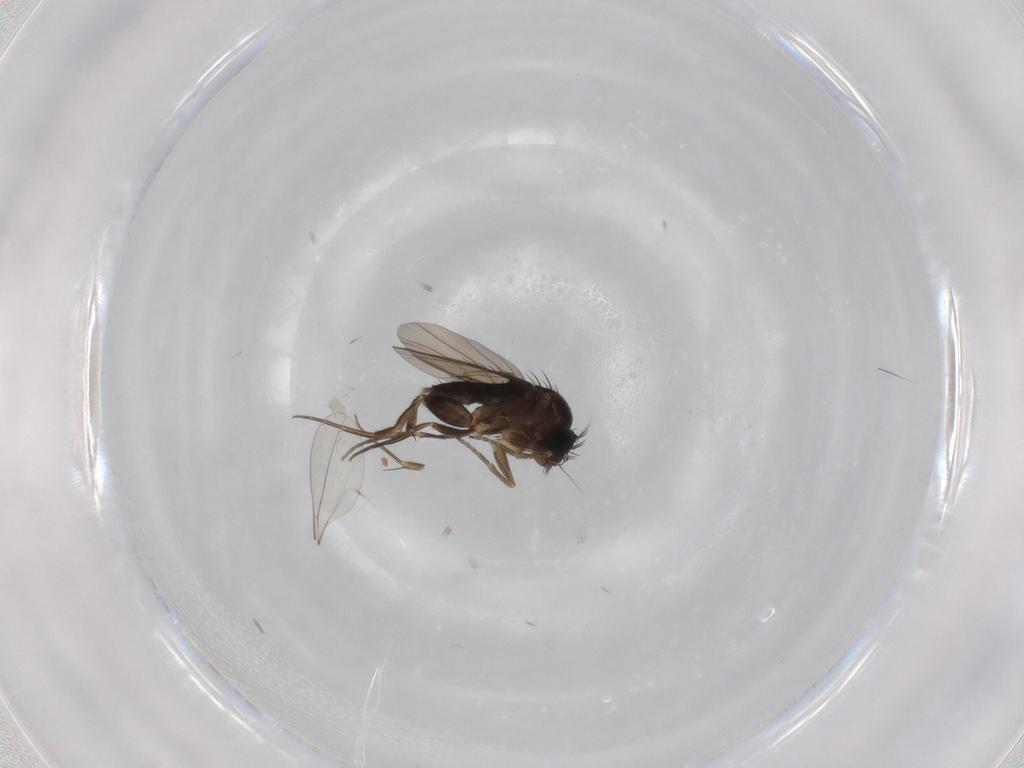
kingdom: Animalia
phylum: Arthropoda
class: Insecta
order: Diptera
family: Phoridae
